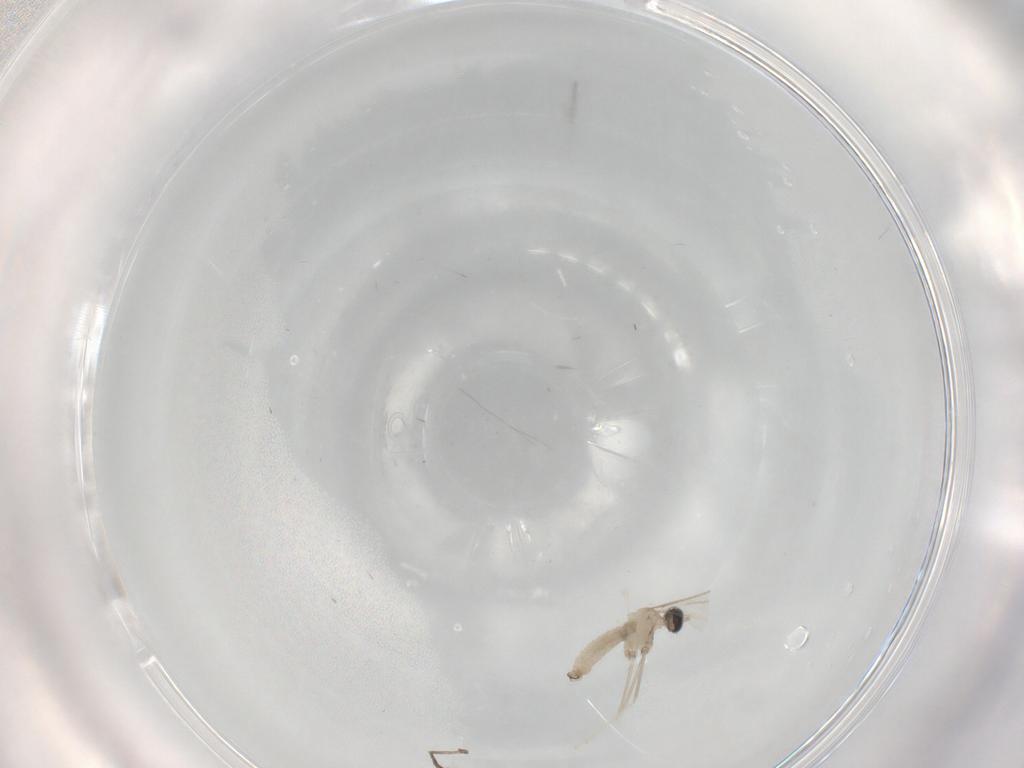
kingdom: Animalia
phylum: Arthropoda
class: Insecta
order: Diptera
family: Cecidomyiidae
